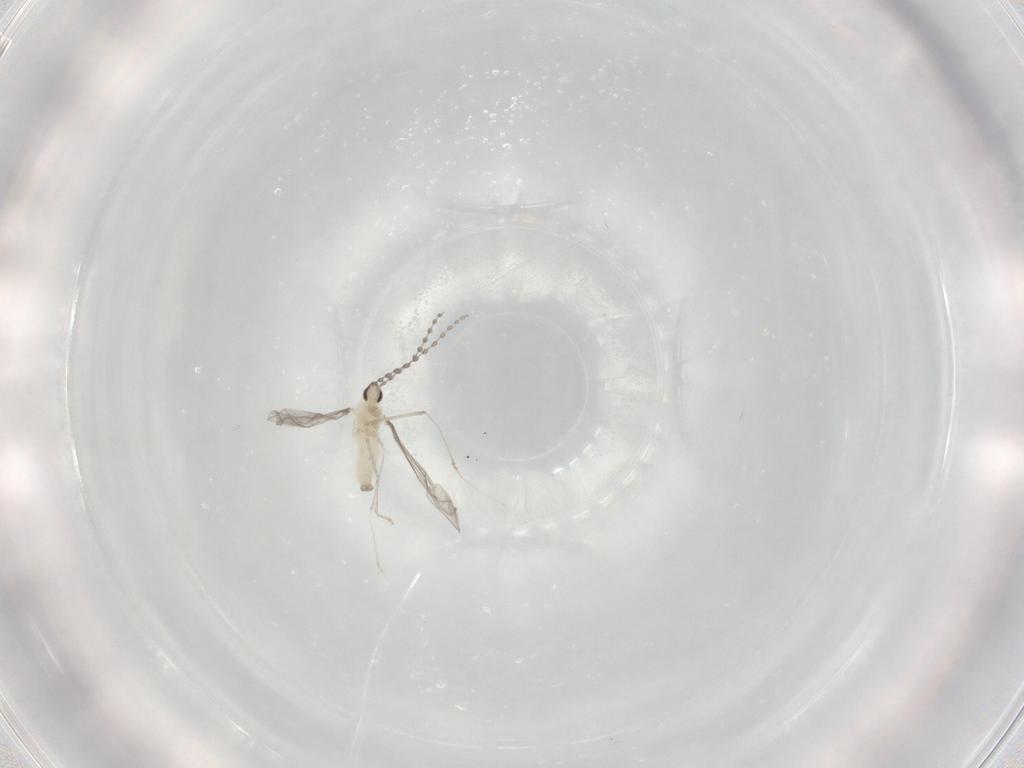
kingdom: Animalia
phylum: Arthropoda
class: Insecta
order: Diptera
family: Cecidomyiidae
